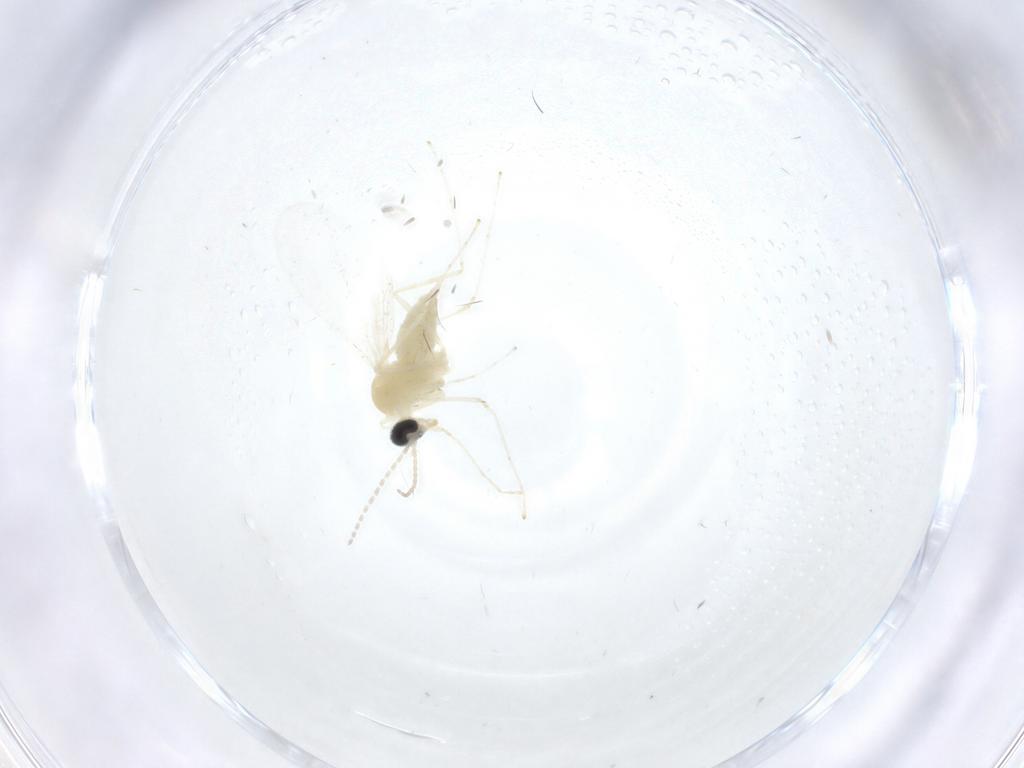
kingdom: Animalia
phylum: Arthropoda
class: Insecta
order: Diptera
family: Cecidomyiidae
